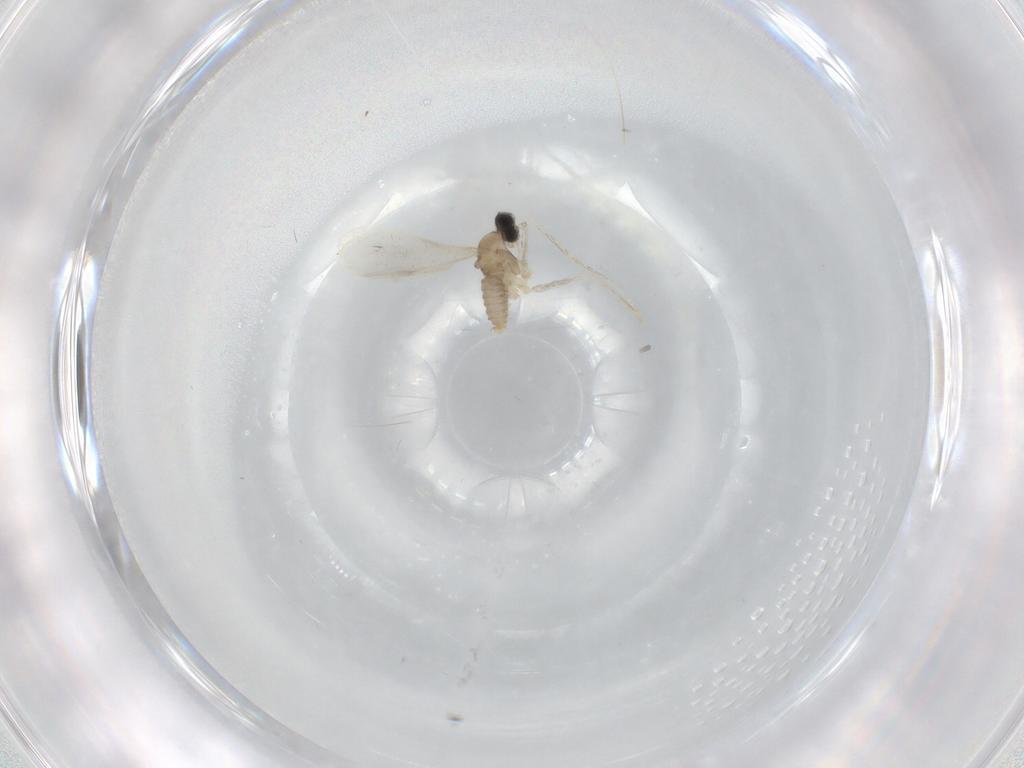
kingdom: Animalia
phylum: Arthropoda
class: Insecta
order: Diptera
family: Cecidomyiidae
